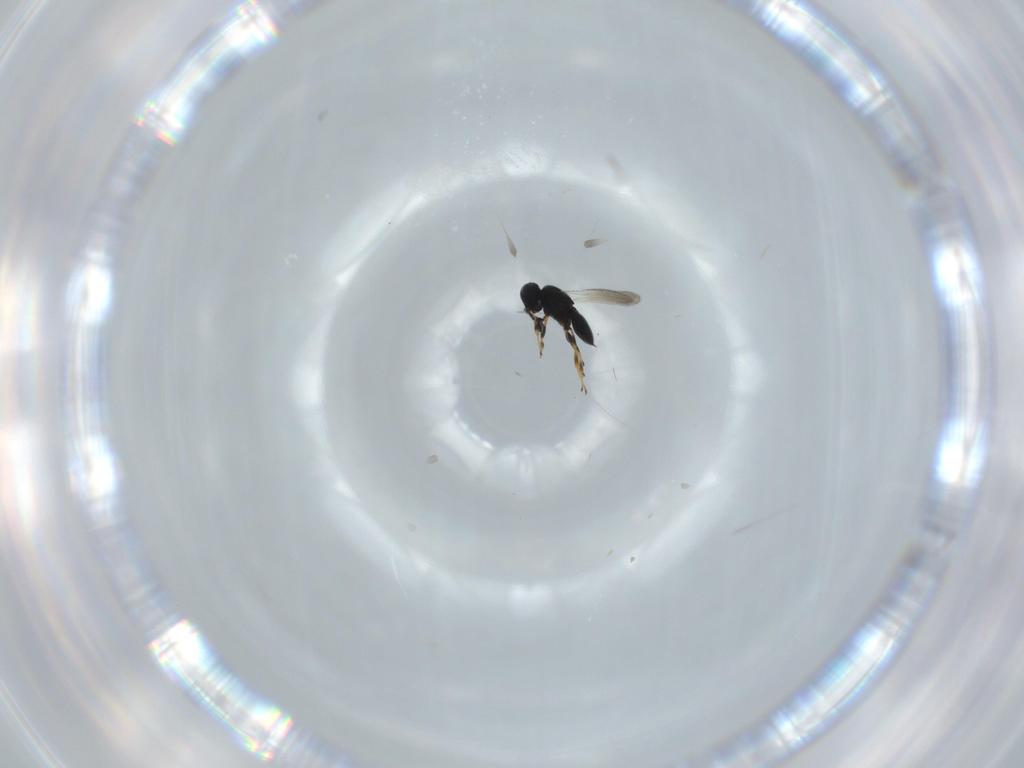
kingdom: Animalia
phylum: Arthropoda
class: Insecta
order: Hymenoptera
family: Scelionidae
